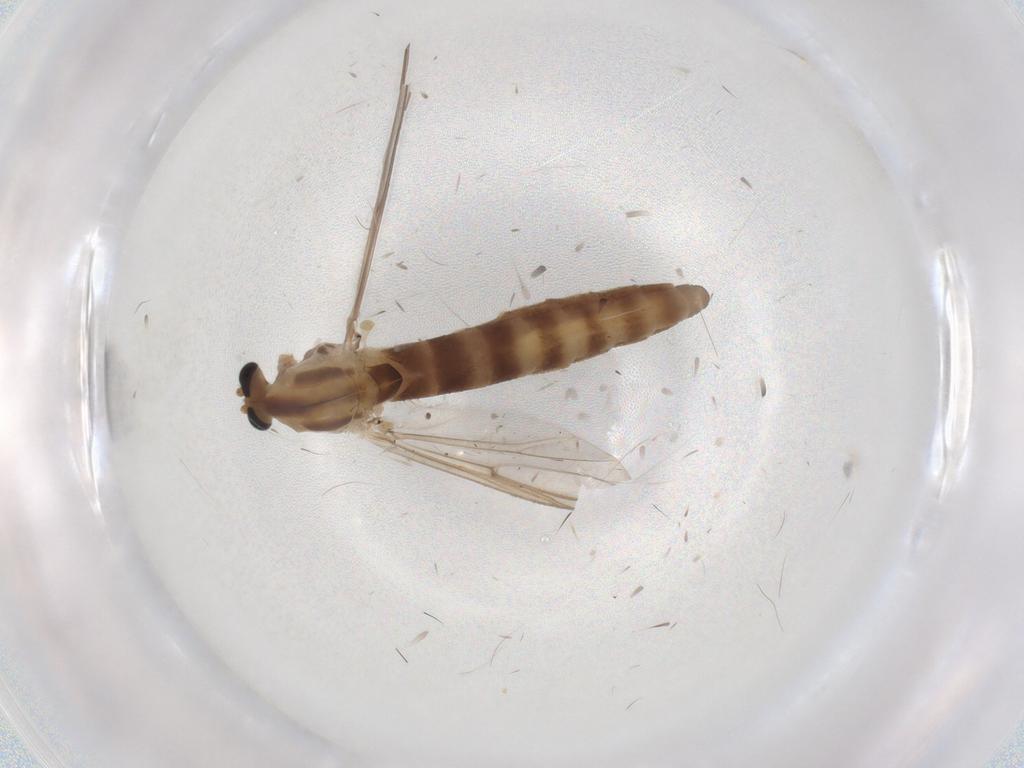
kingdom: Animalia
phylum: Arthropoda
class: Insecta
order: Diptera
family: Chironomidae
